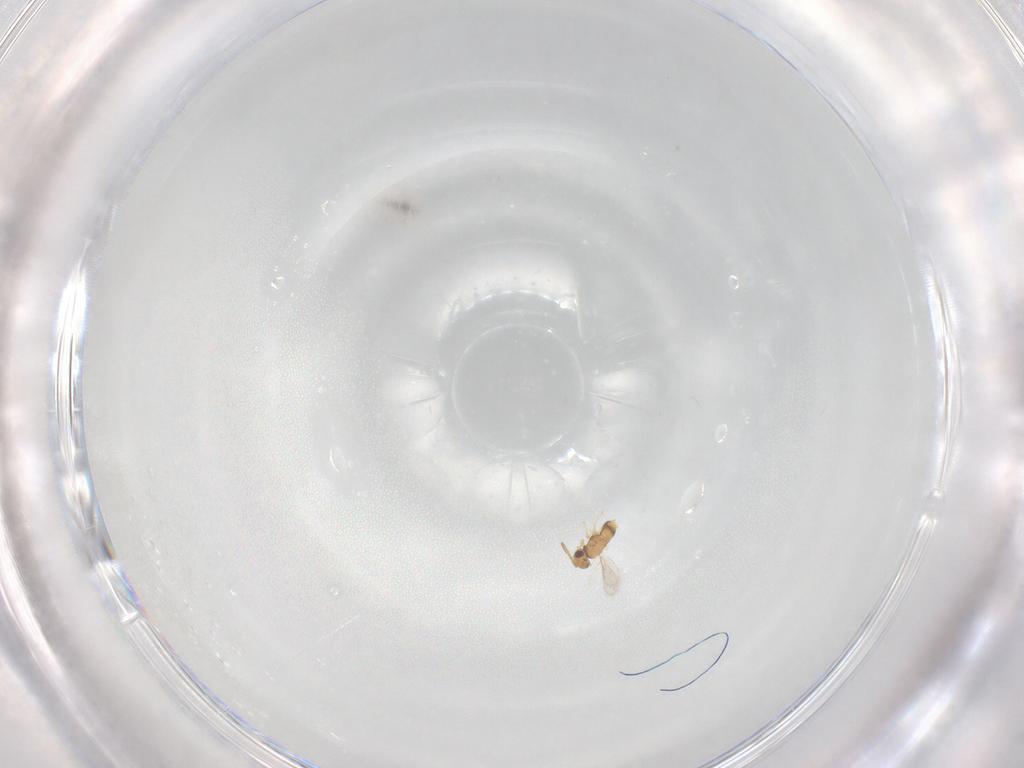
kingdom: Animalia
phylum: Arthropoda
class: Insecta
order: Hymenoptera
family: Aphelinidae
